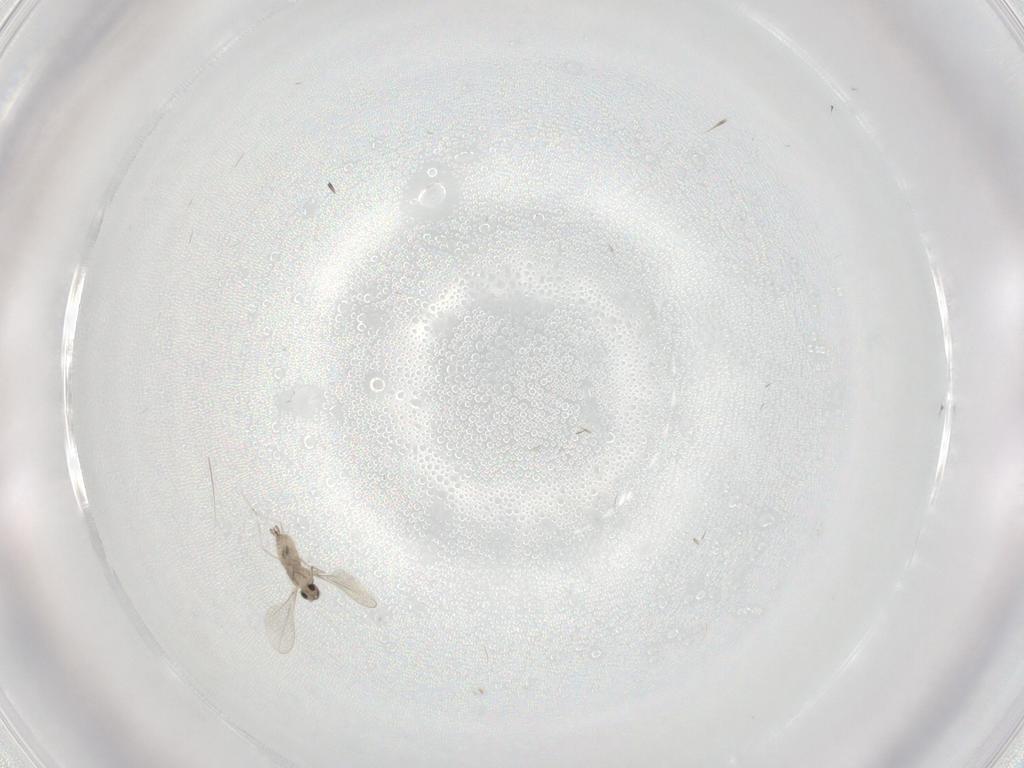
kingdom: Animalia
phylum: Arthropoda
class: Insecta
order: Diptera
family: Cecidomyiidae
